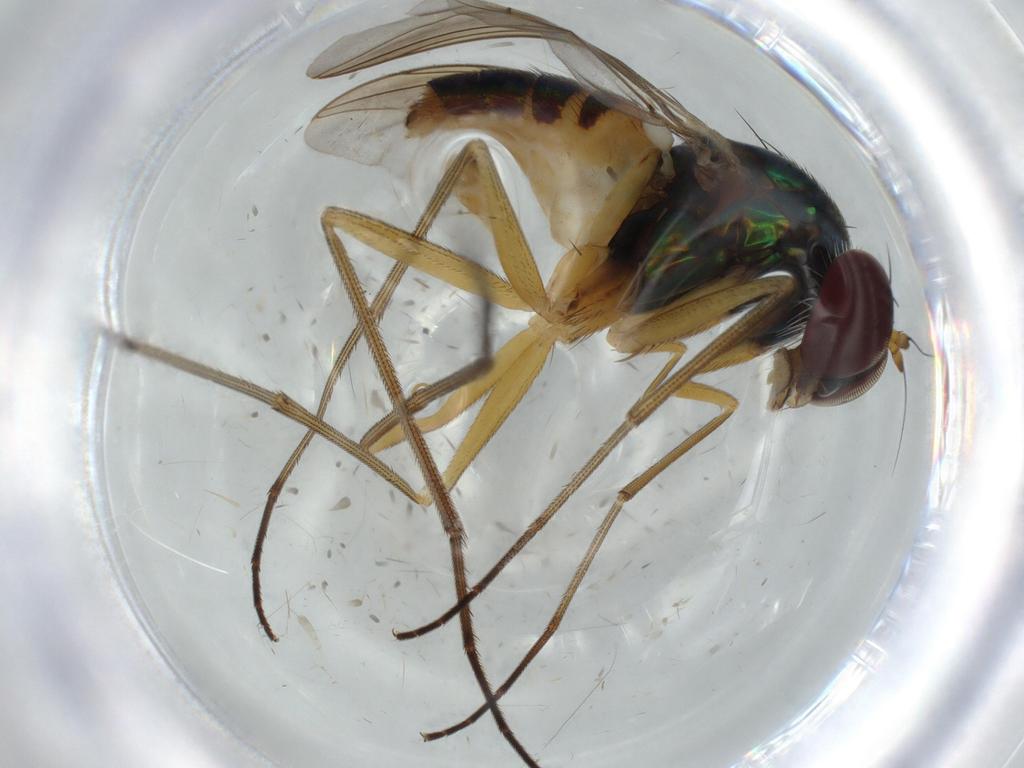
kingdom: Animalia
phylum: Arthropoda
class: Insecta
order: Diptera
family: Dolichopodidae
